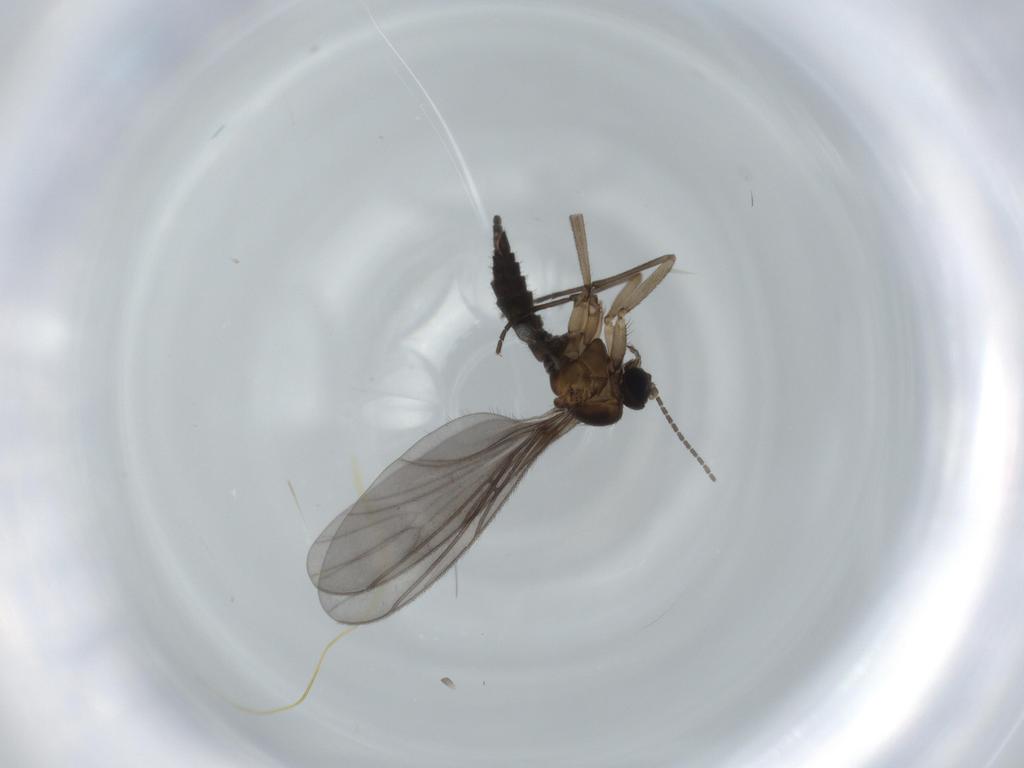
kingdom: Animalia
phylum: Arthropoda
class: Insecta
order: Diptera
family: Sciaridae
